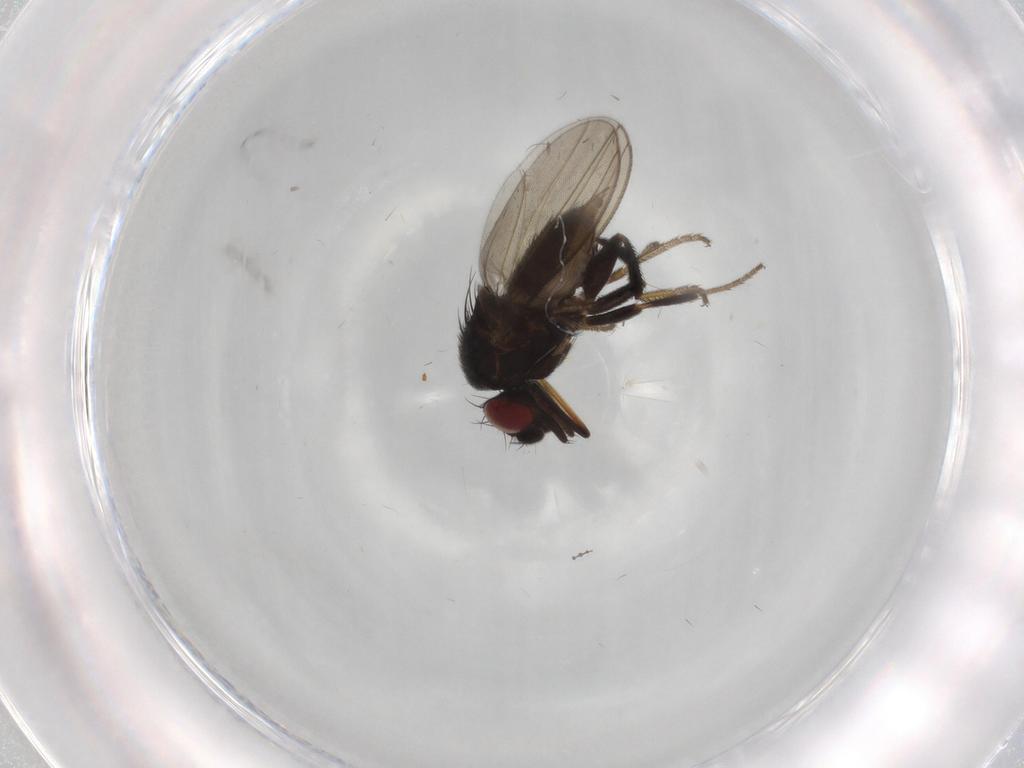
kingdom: Animalia
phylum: Arthropoda
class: Insecta
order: Diptera
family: Milichiidae
